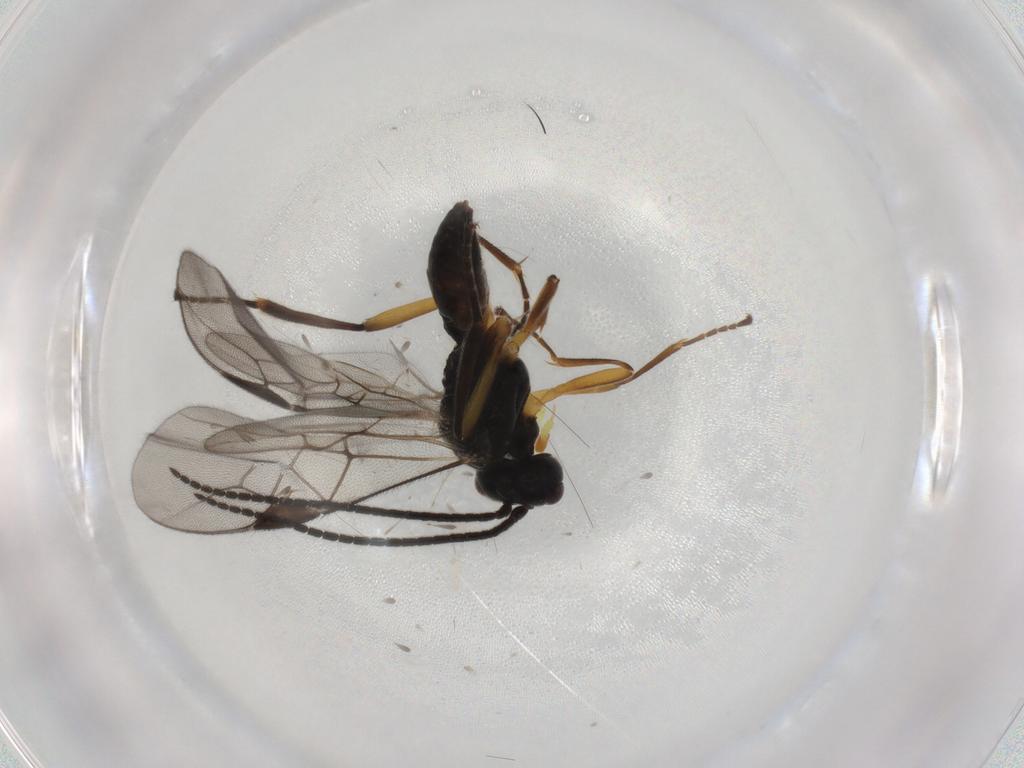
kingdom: Animalia
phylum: Arthropoda
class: Insecta
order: Hymenoptera
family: Braconidae
